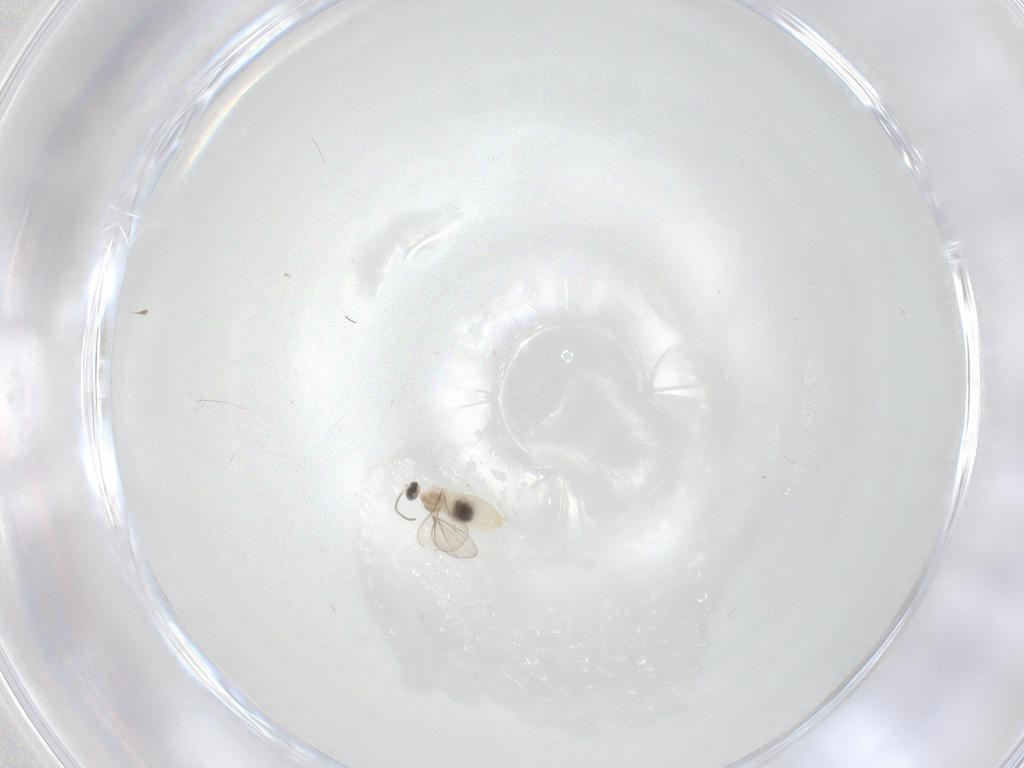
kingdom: Animalia
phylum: Arthropoda
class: Insecta
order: Diptera
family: Cecidomyiidae
